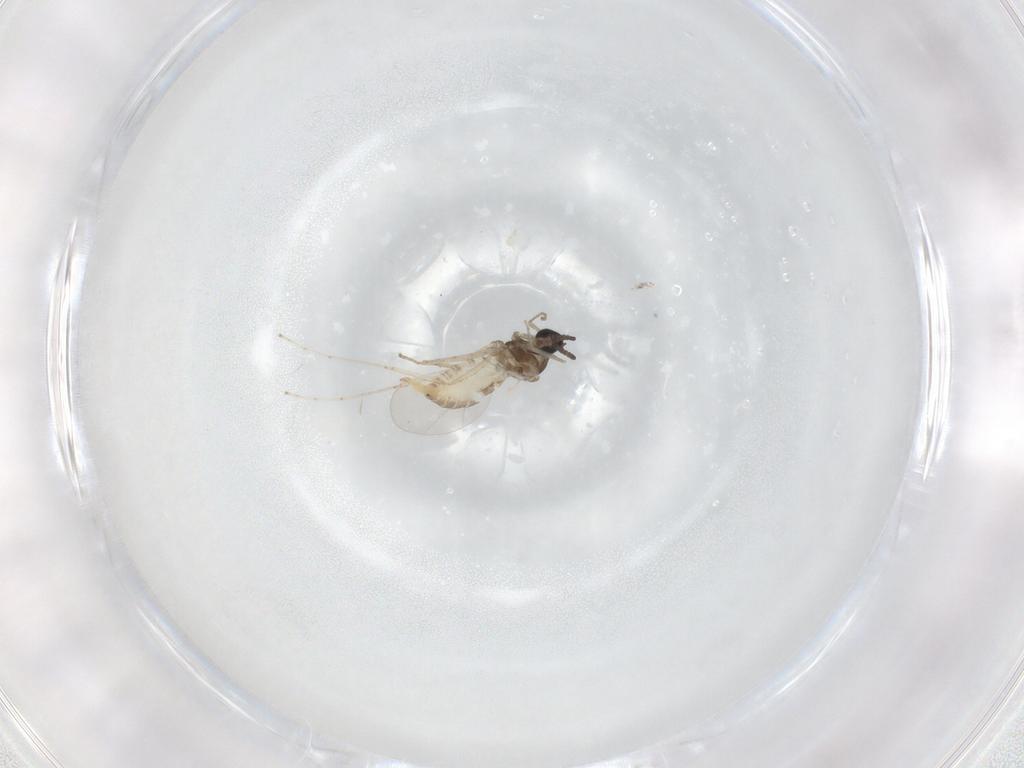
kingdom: Animalia
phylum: Arthropoda
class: Insecta
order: Diptera
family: Cecidomyiidae
